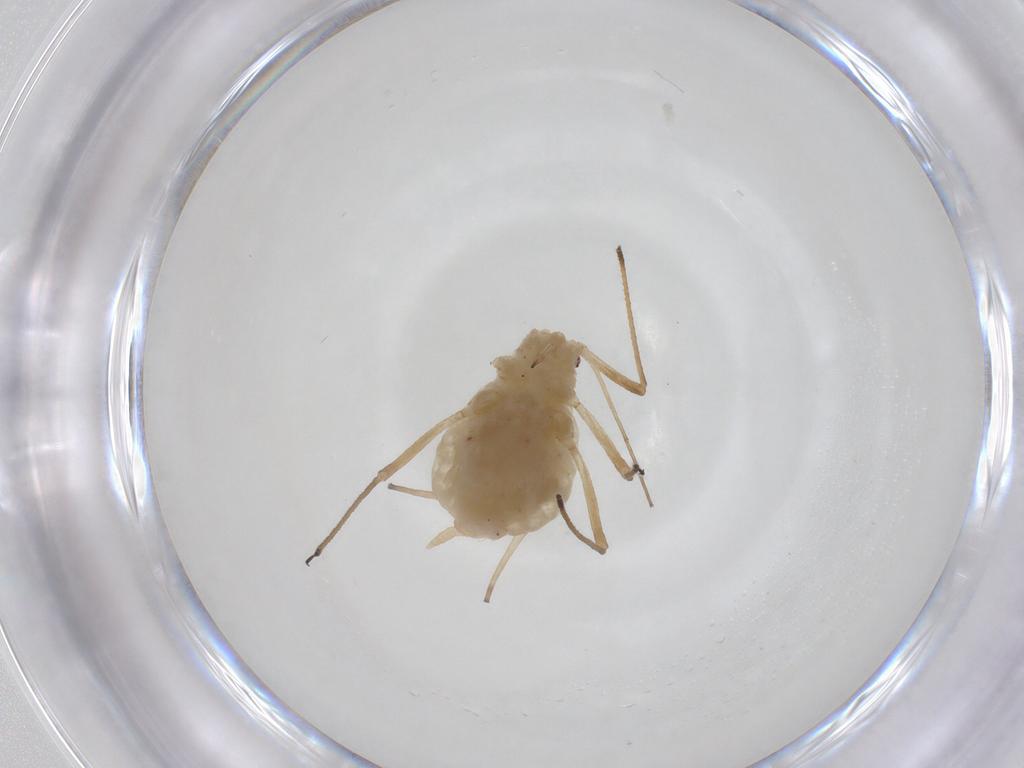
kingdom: Animalia
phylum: Arthropoda
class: Insecta
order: Hemiptera
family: Aphididae
